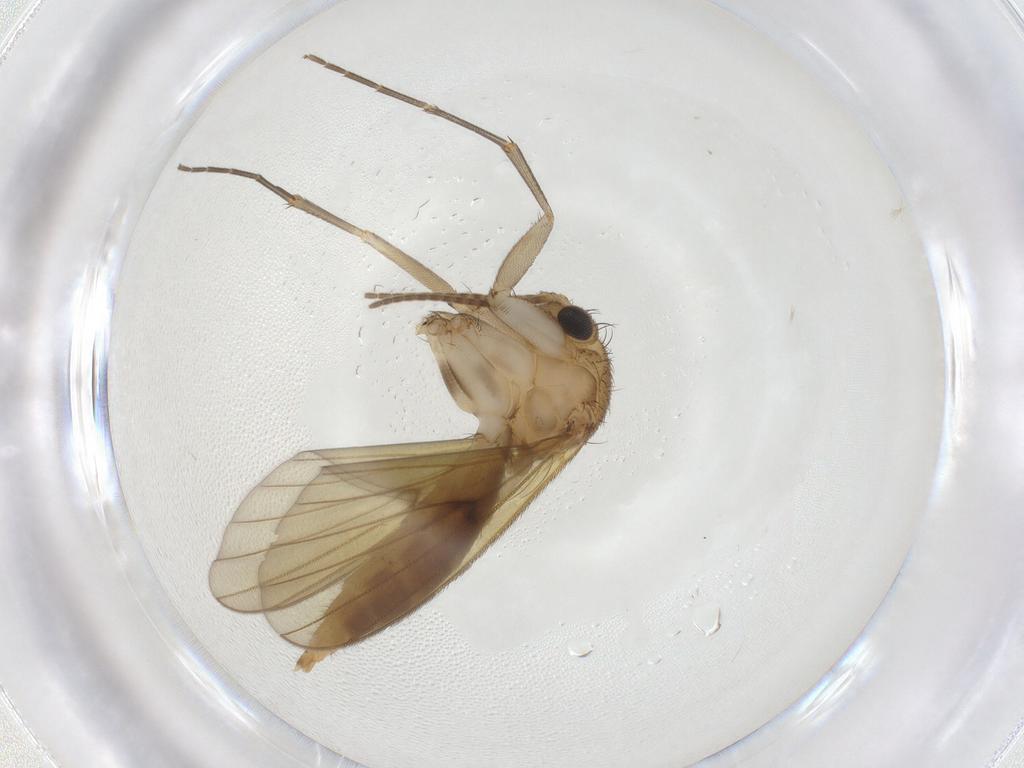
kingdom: Animalia
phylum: Arthropoda
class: Insecta
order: Diptera
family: Mycetophilidae
